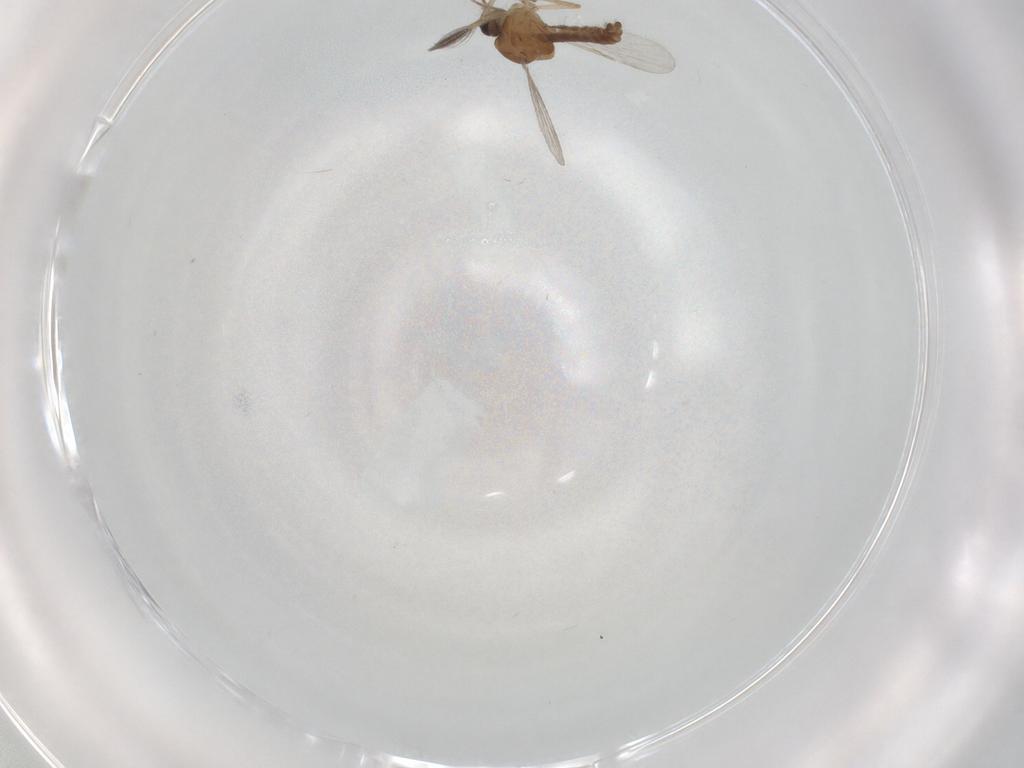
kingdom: Animalia
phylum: Arthropoda
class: Insecta
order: Diptera
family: Ceratopogonidae
